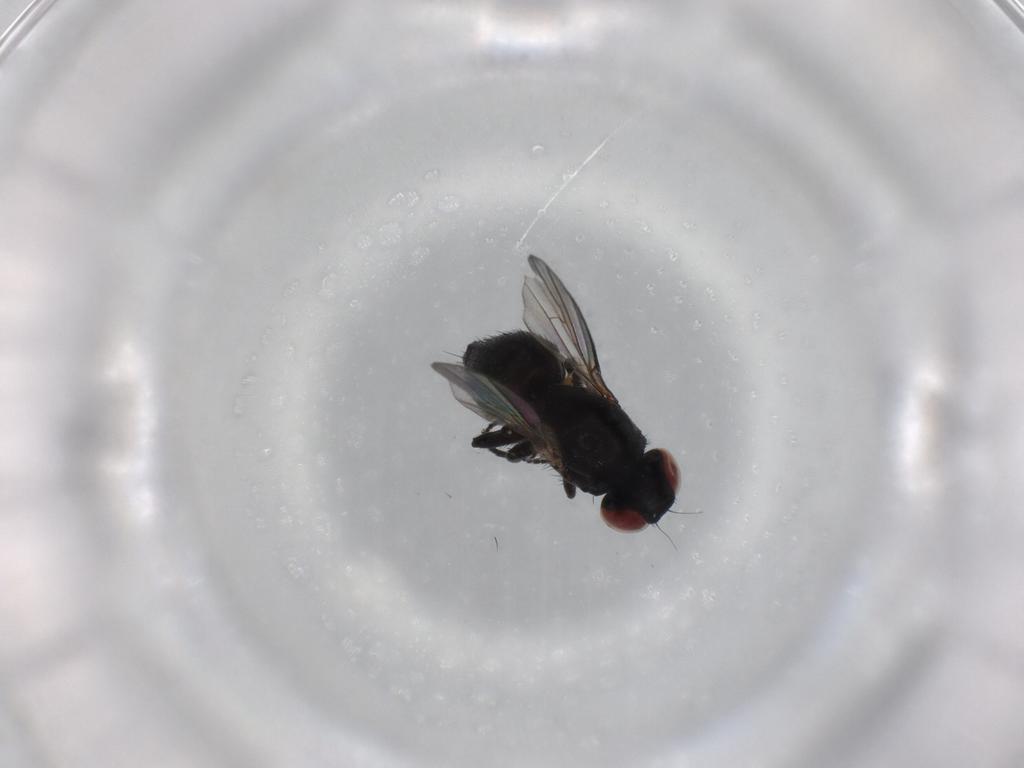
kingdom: Animalia
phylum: Arthropoda
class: Insecta
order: Diptera
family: Agromyzidae
